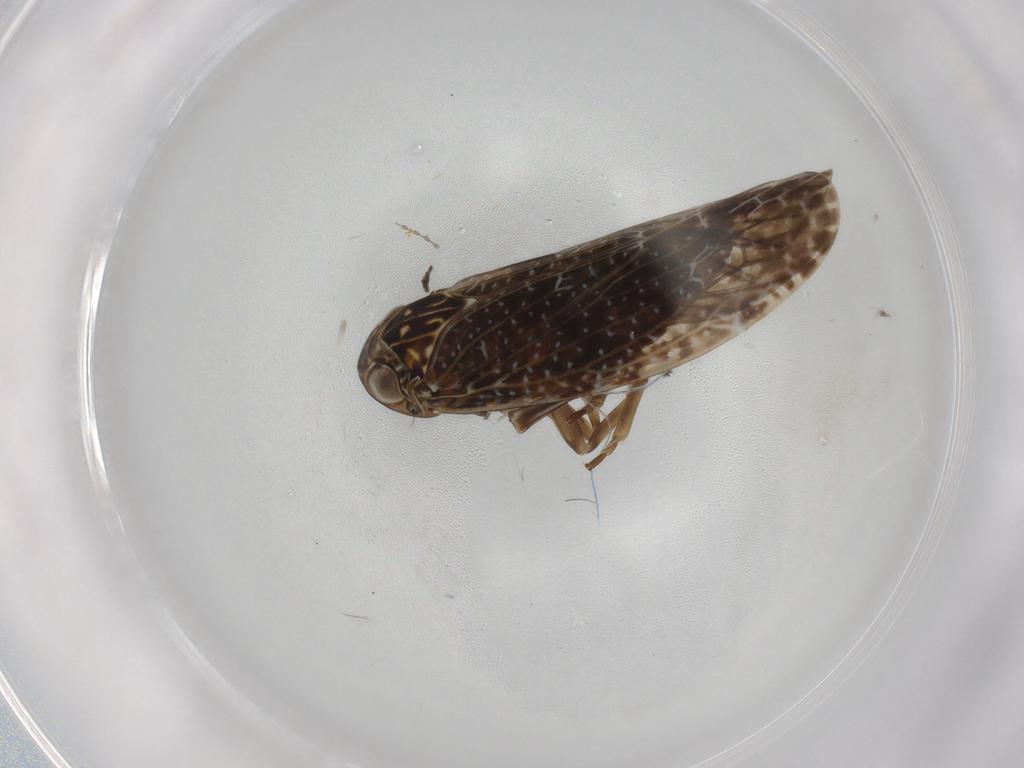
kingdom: Animalia
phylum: Arthropoda
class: Insecta
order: Hemiptera
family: Achilidae
